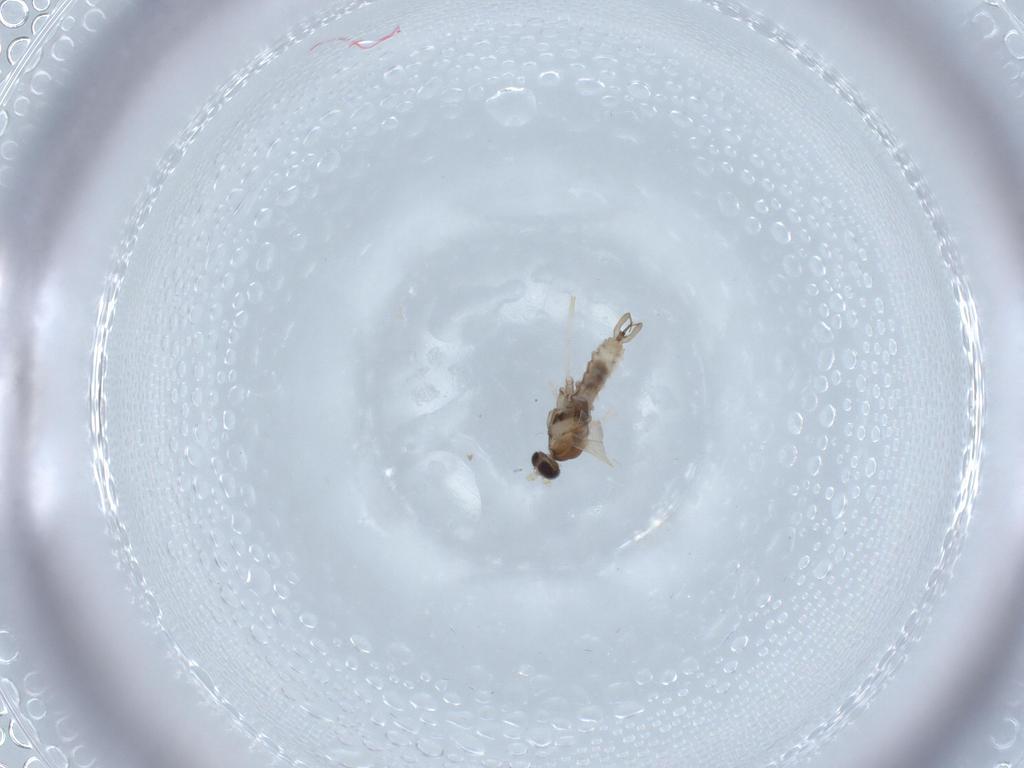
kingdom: Animalia
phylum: Arthropoda
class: Insecta
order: Diptera
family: Cecidomyiidae
